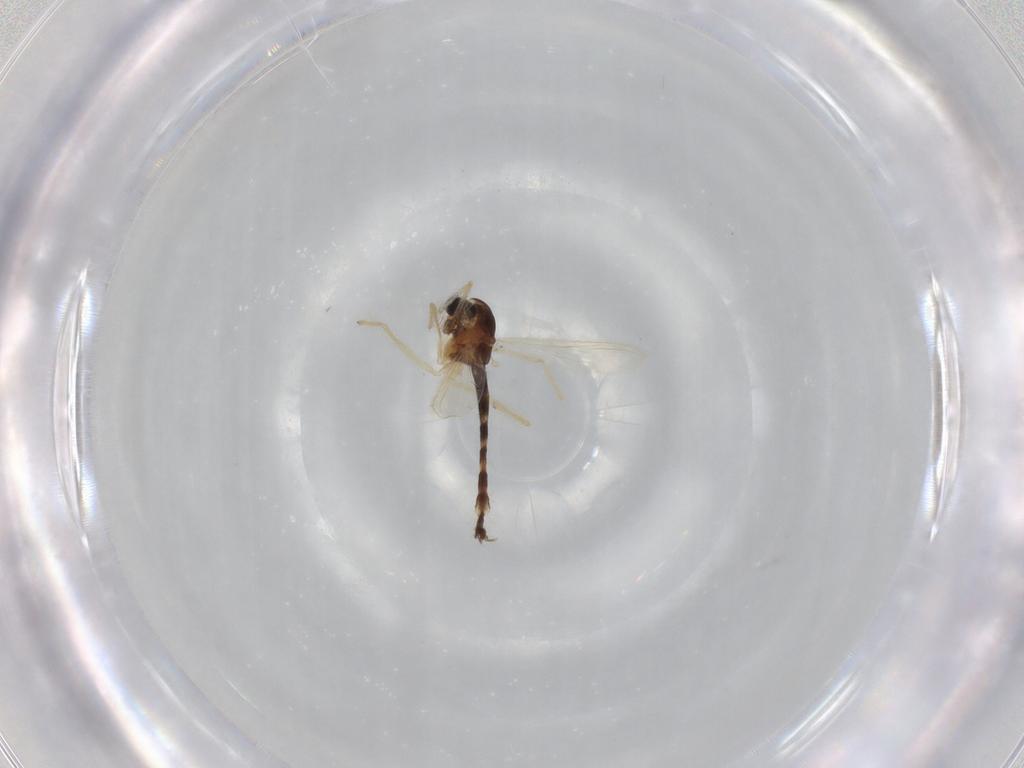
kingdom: Animalia
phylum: Arthropoda
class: Insecta
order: Diptera
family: Chironomidae
